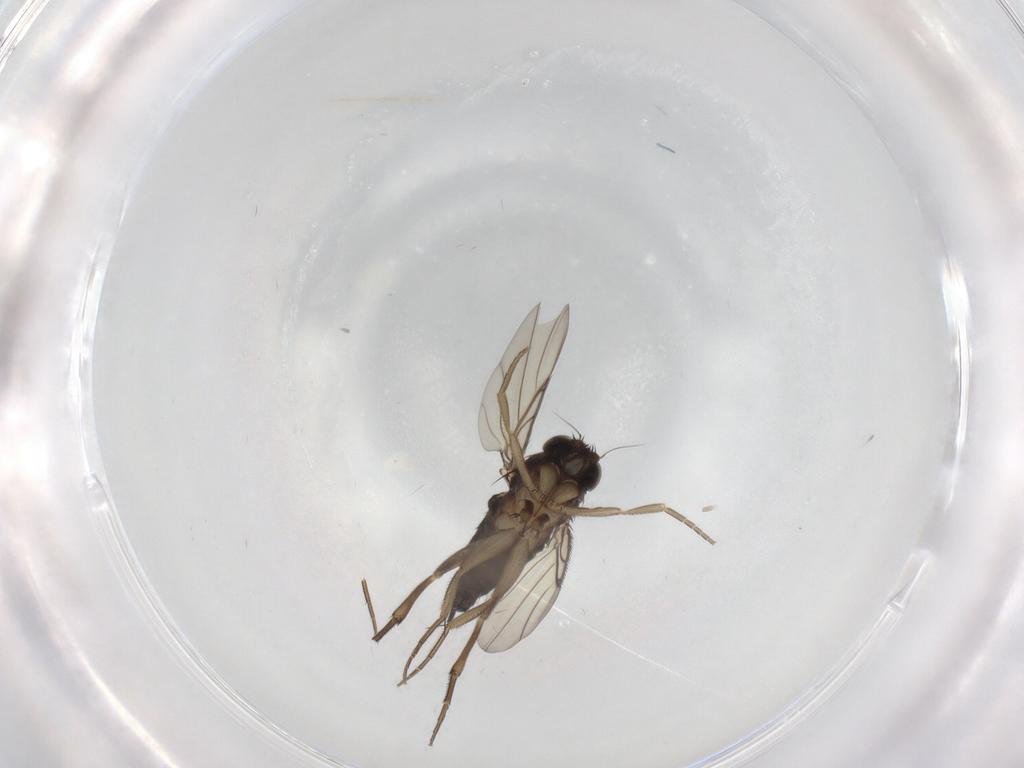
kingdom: Animalia
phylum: Arthropoda
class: Insecta
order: Diptera
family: Phoridae
